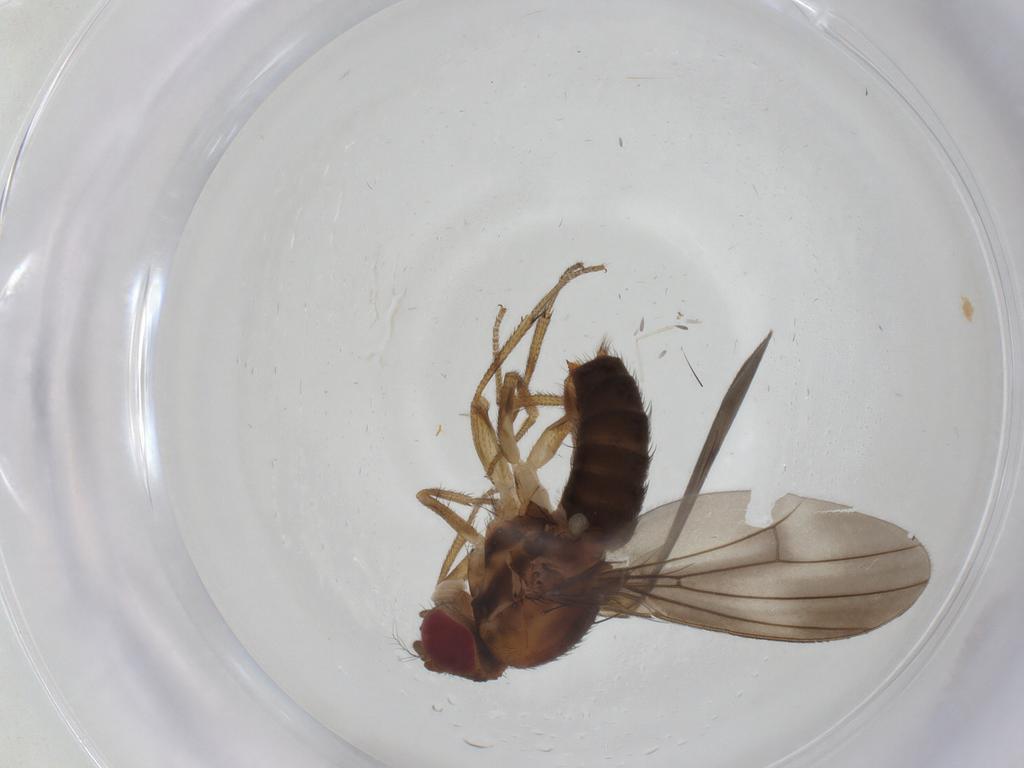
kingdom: Animalia
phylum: Arthropoda
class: Insecta
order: Diptera
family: Drosophilidae
